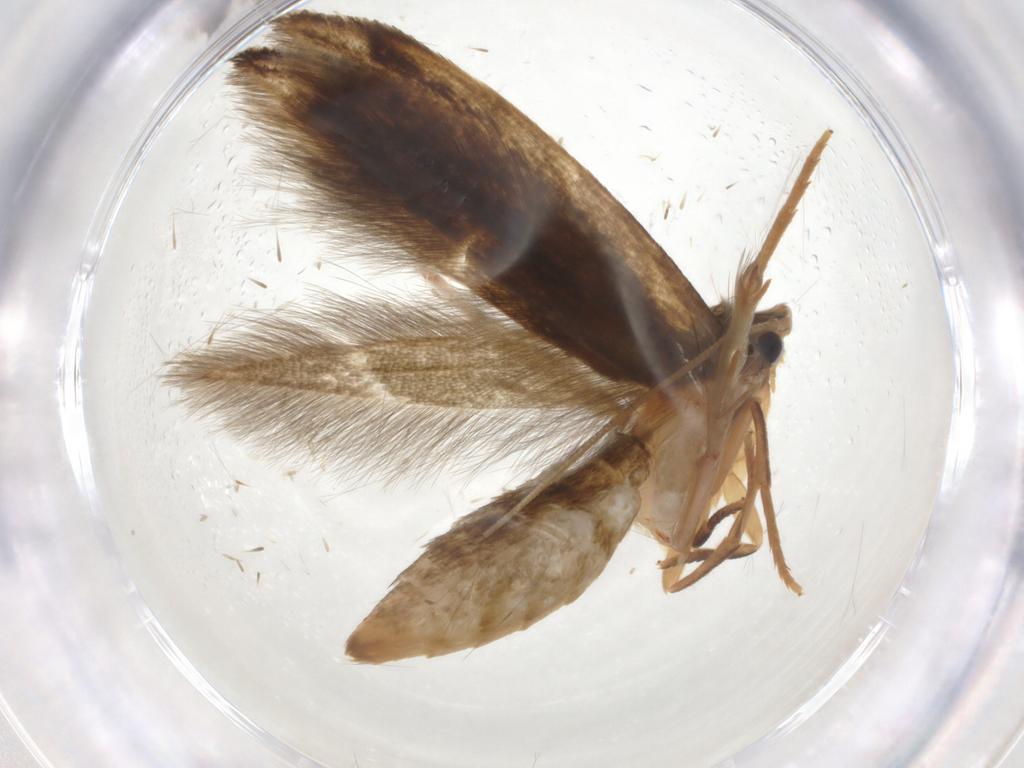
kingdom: Animalia
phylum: Arthropoda
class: Insecta
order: Lepidoptera
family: Tineidae
